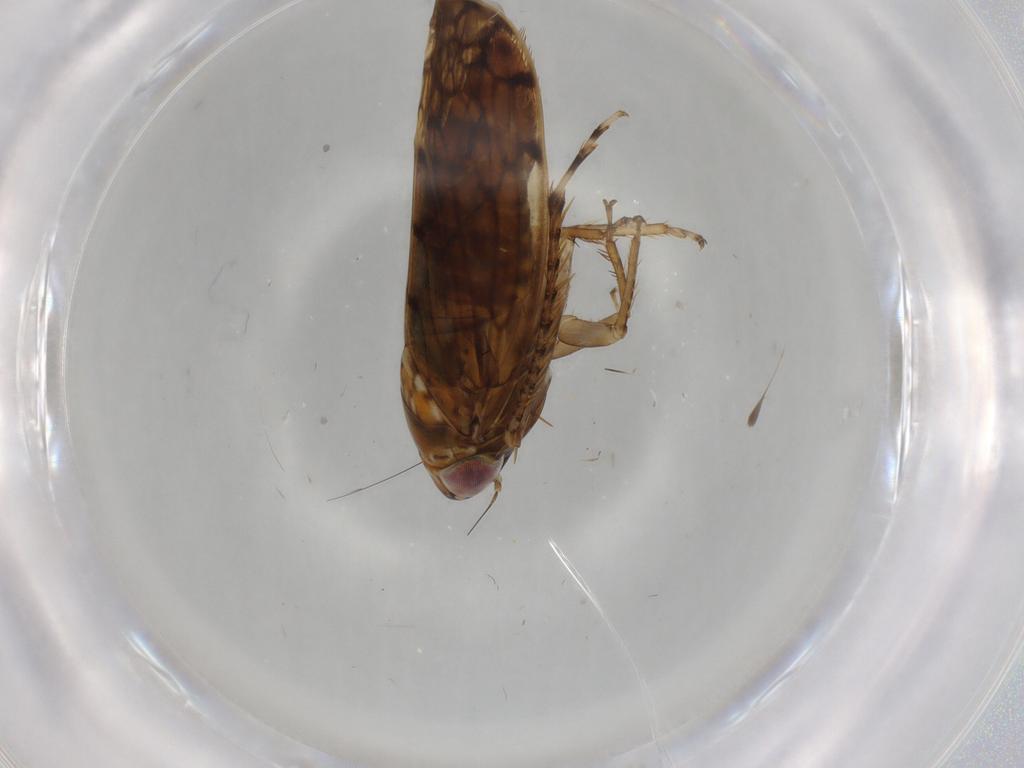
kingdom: Animalia
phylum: Arthropoda
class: Insecta
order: Hemiptera
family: Cicadellidae
